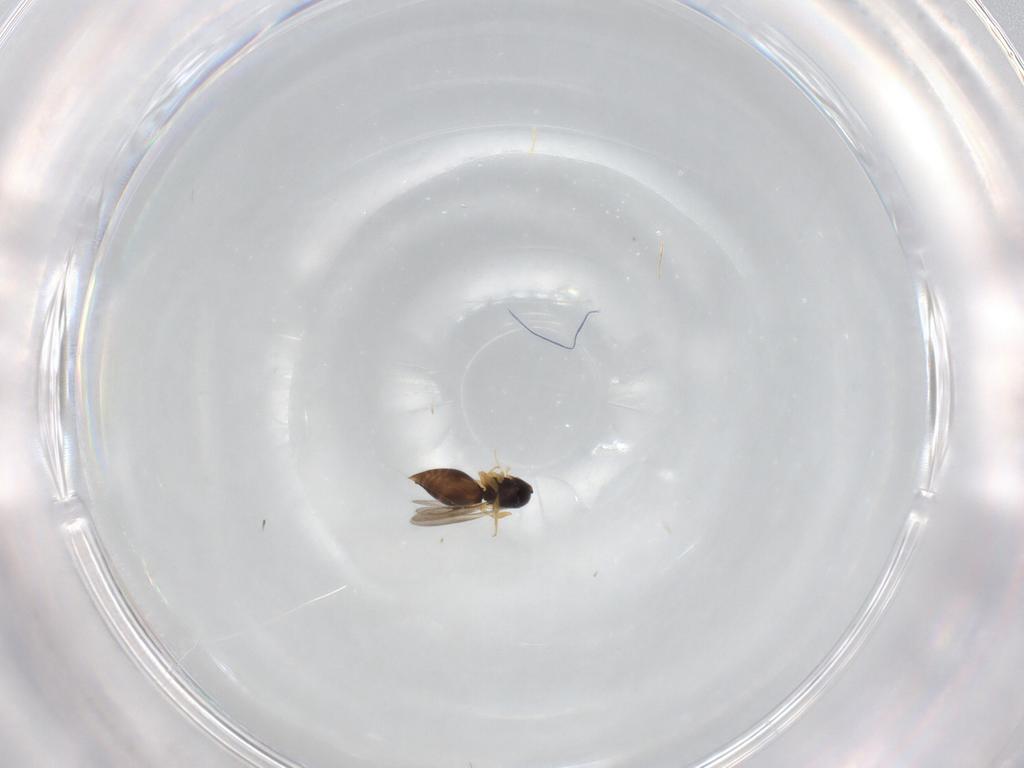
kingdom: Animalia
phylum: Arthropoda
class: Insecta
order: Hymenoptera
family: Ceraphronidae
